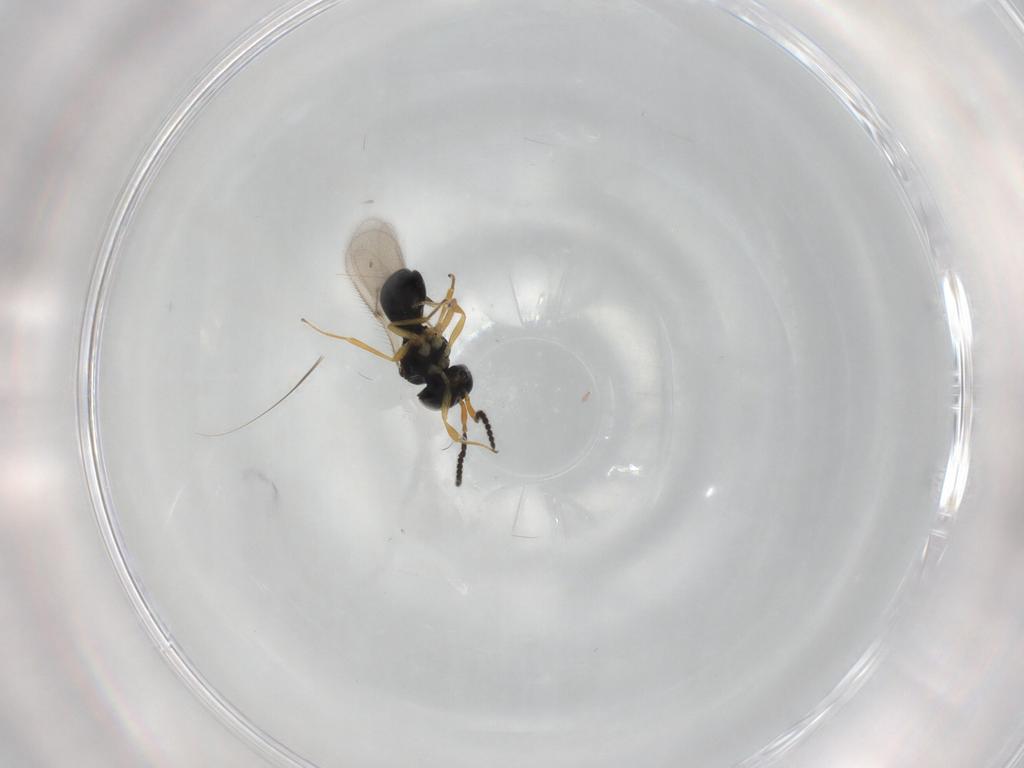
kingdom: Animalia
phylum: Arthropoda
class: Insecta
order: Hymenoptera
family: Scelionidae
